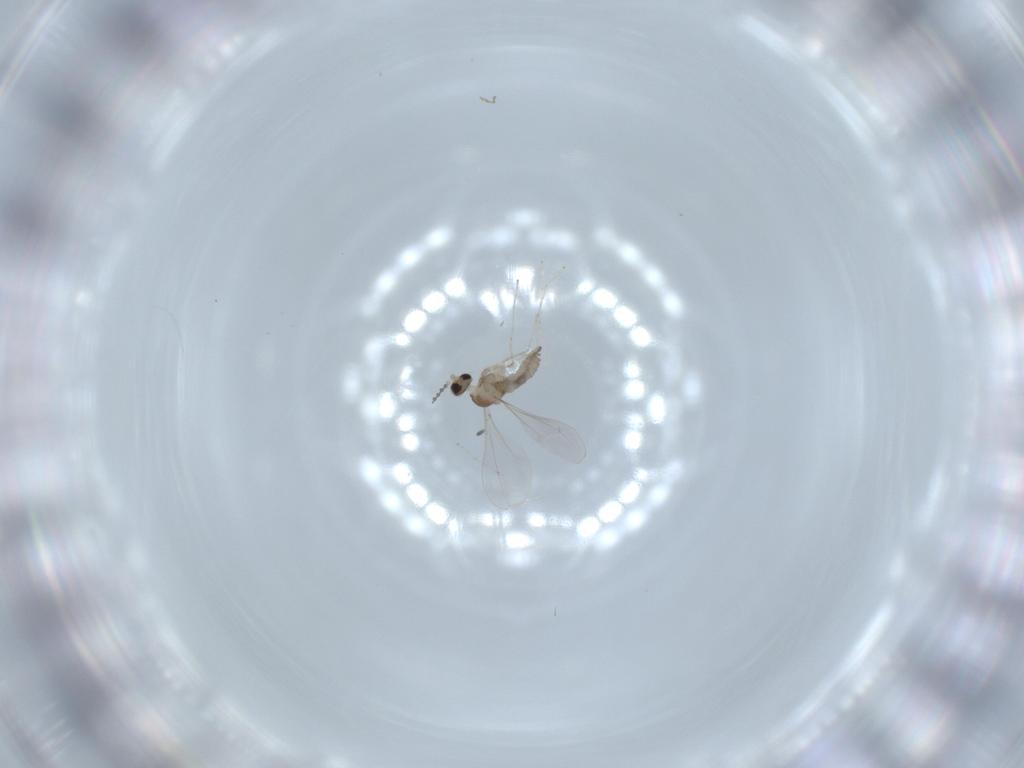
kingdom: Animalia
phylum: Arthropoda
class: Insecta
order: Diptera
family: Cecidomyiidae
